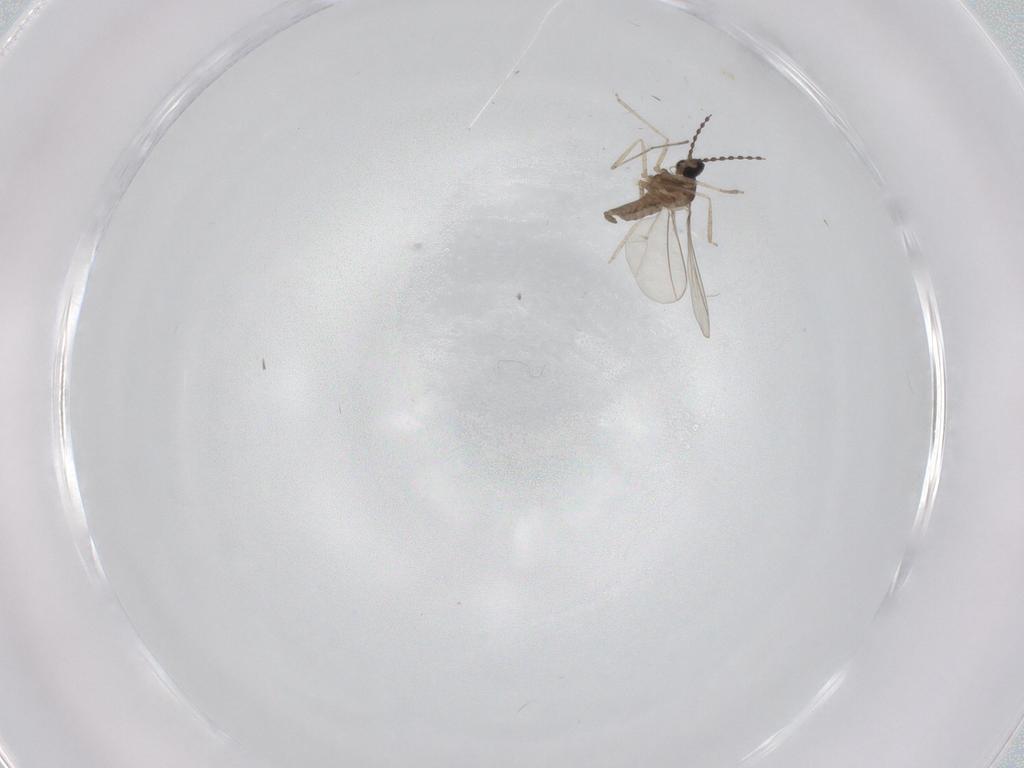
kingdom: Animalia
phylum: Arthropoda
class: Insecta
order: Diptera
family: Cecidomyiidae
